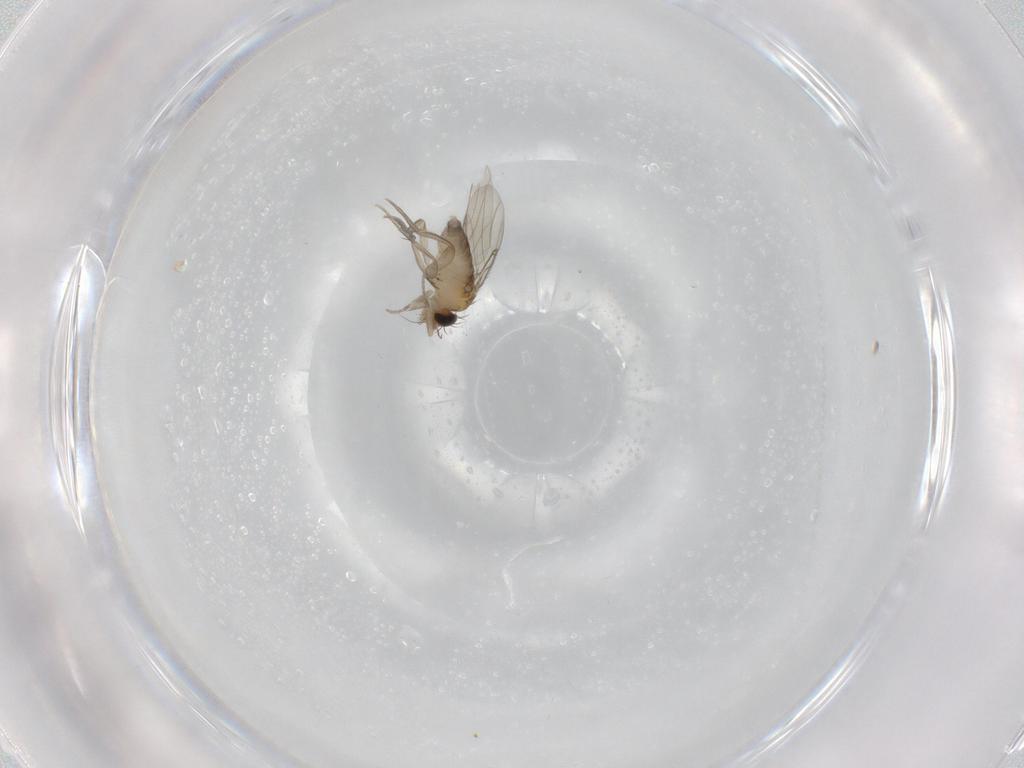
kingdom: Animalia
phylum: Arthropoda
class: Insecta
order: Diptera
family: Phoridae
